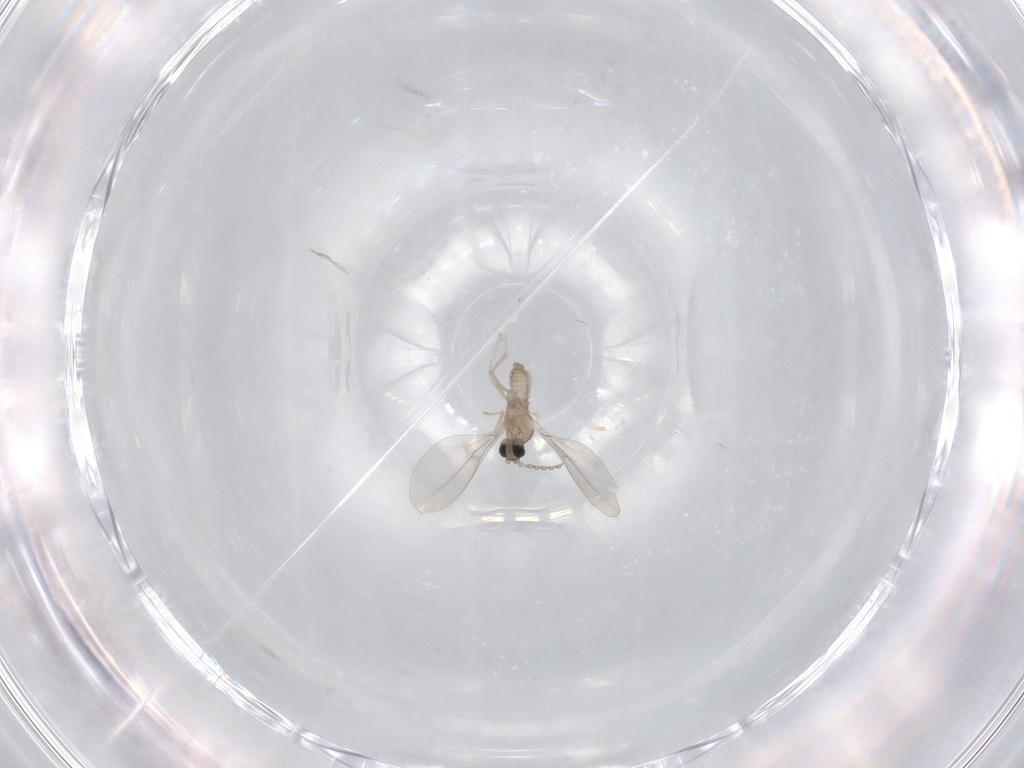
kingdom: Animalia
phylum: Arthropoda
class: Insecta
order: Diptera
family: Cecidomyiidae
